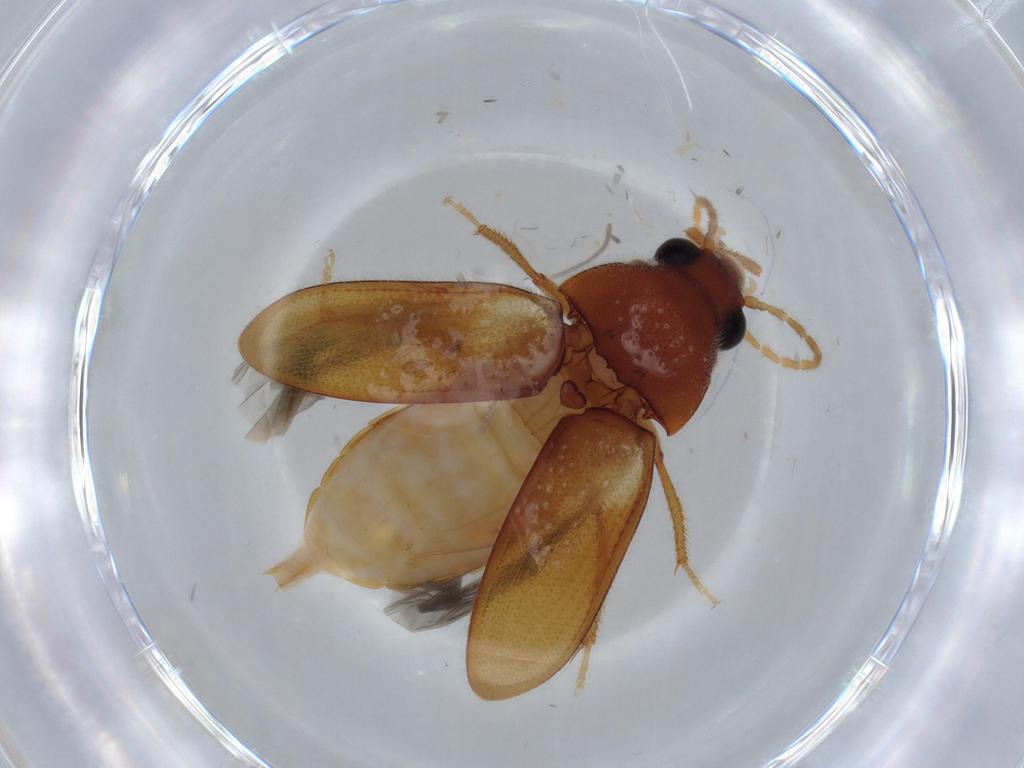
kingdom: Animalia
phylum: Arthropoda
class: Insecta
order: Coleoptera
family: Ptilodactylidae
